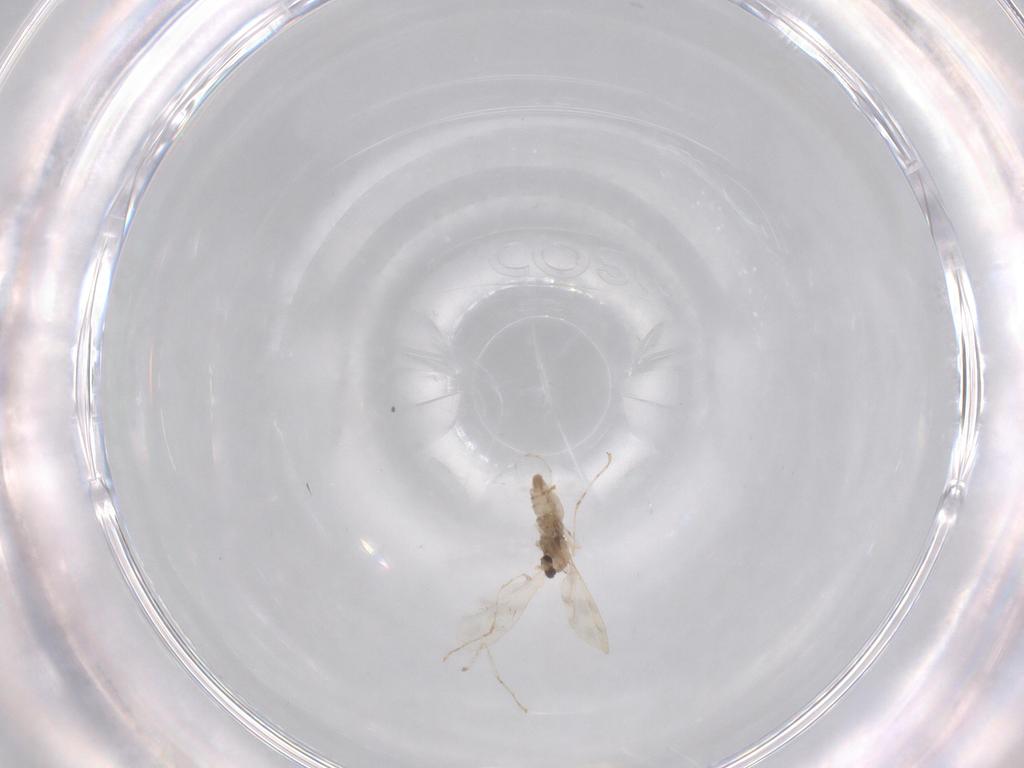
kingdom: Animalia
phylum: Arthropoda
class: Insecta
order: Diptera
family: Cecidomyiidae
